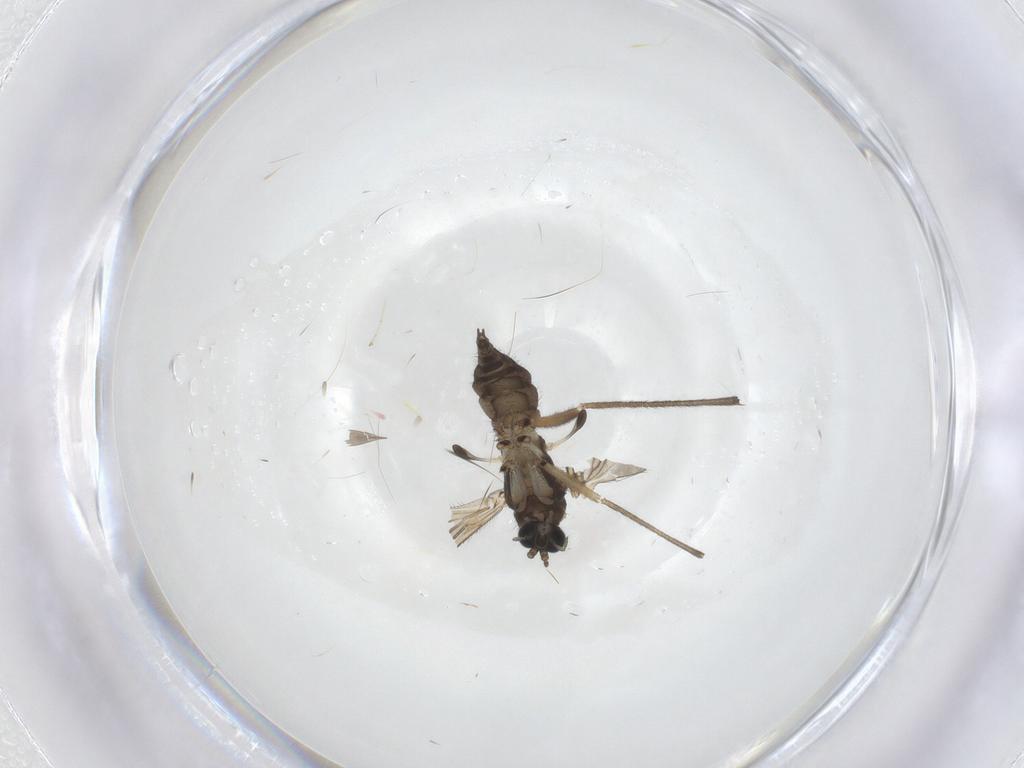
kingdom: Animalia
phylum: Arthropoda
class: Insecta
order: Diptera
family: Sciaridae
